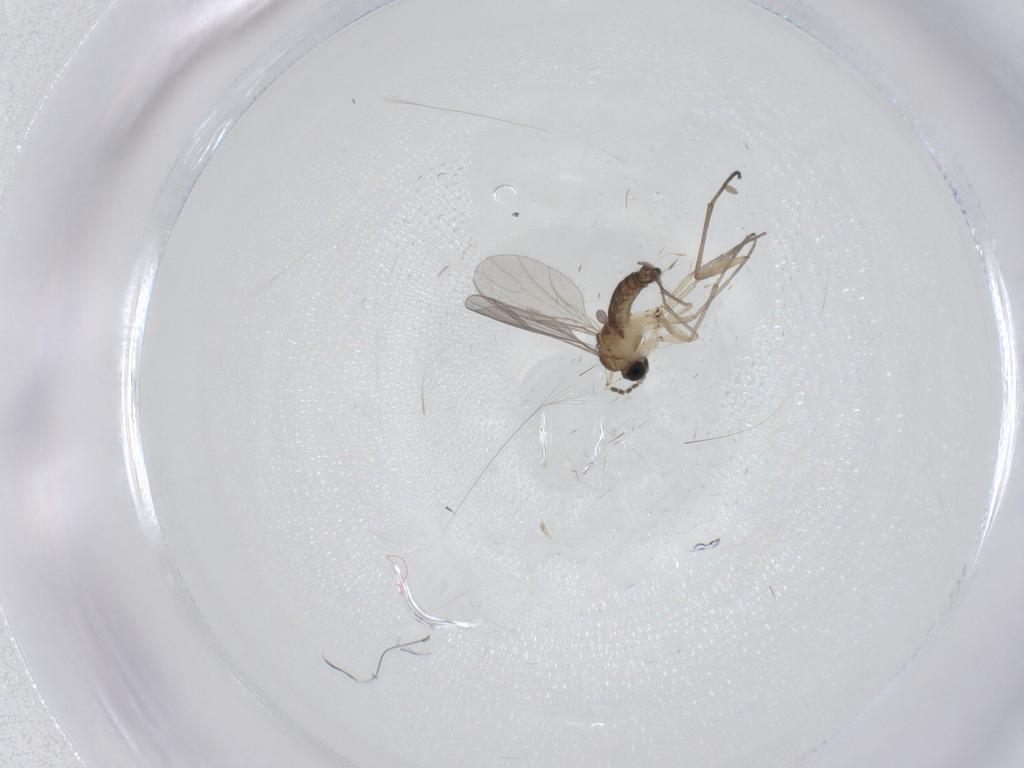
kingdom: Animalia
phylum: Arthropoda
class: Insecta
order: Diptera
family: Sciaridae
